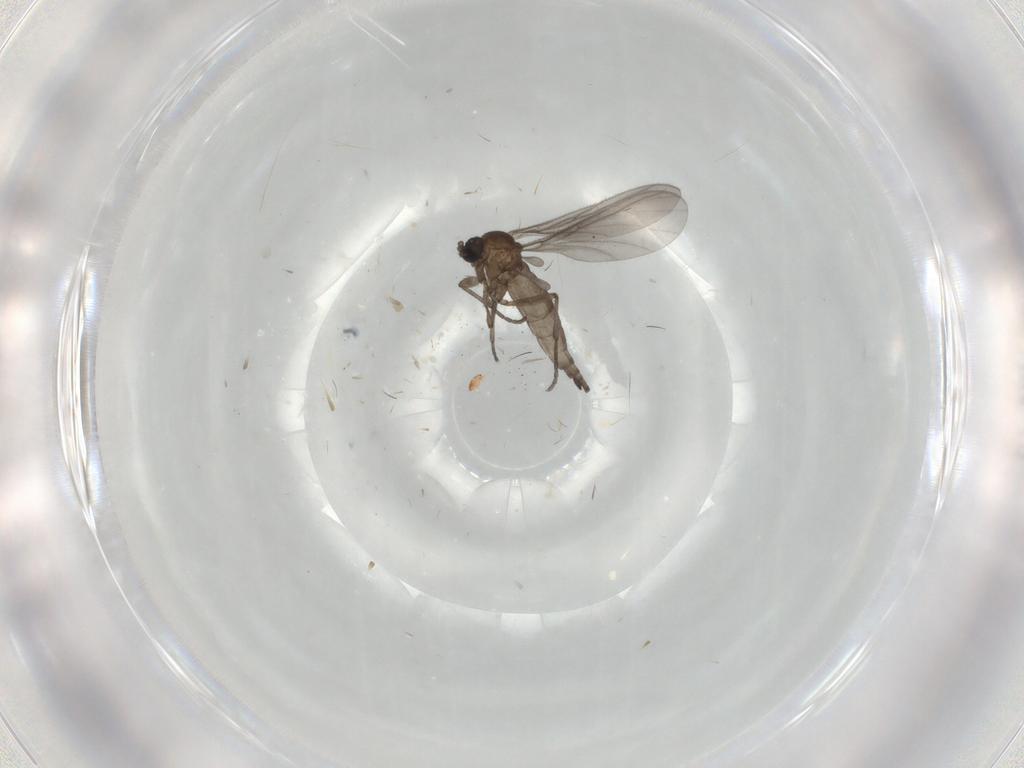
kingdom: Animalia
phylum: Arthropoda
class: Insecta
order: Diptera
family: Sciaridae
